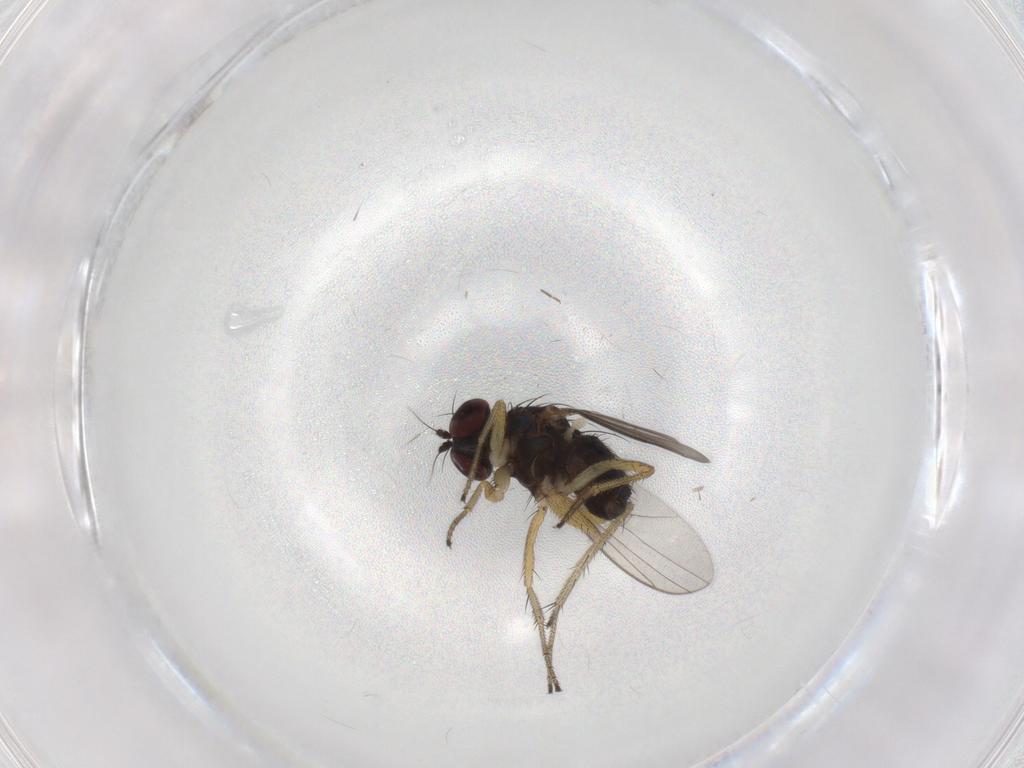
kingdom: Animalia
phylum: Arthropoda
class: Insecta
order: Diptera
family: Dolichopodidae
